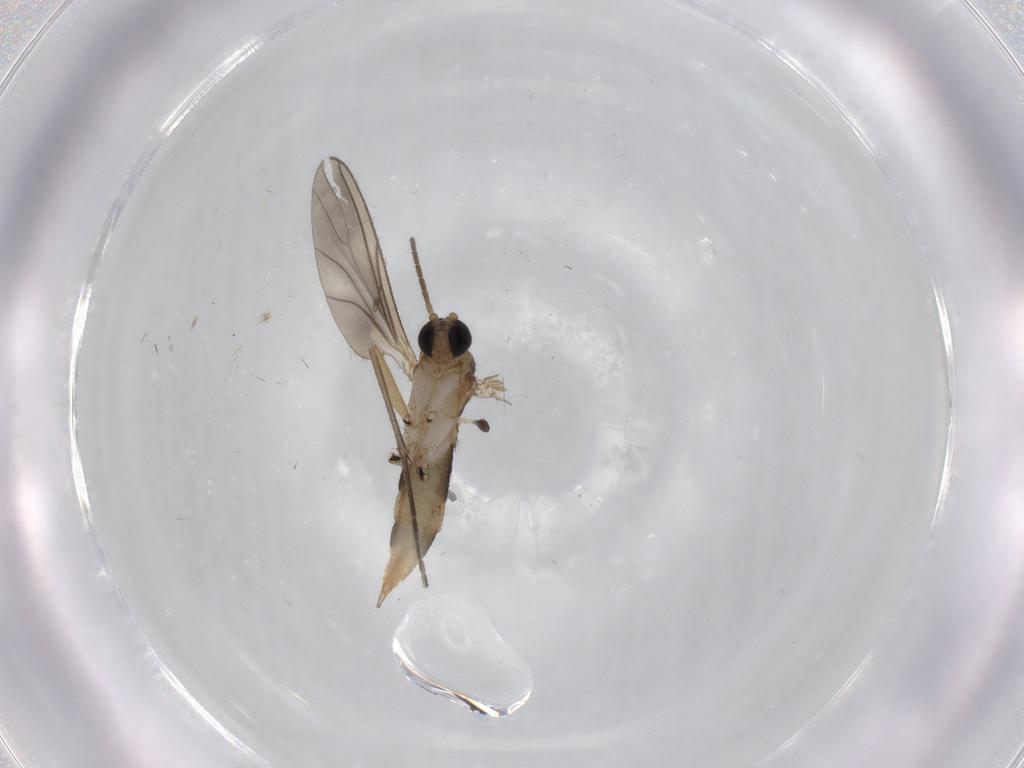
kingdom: Animalia
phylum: Arthropoda
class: Insecta
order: Diptera
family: Sciaridae
